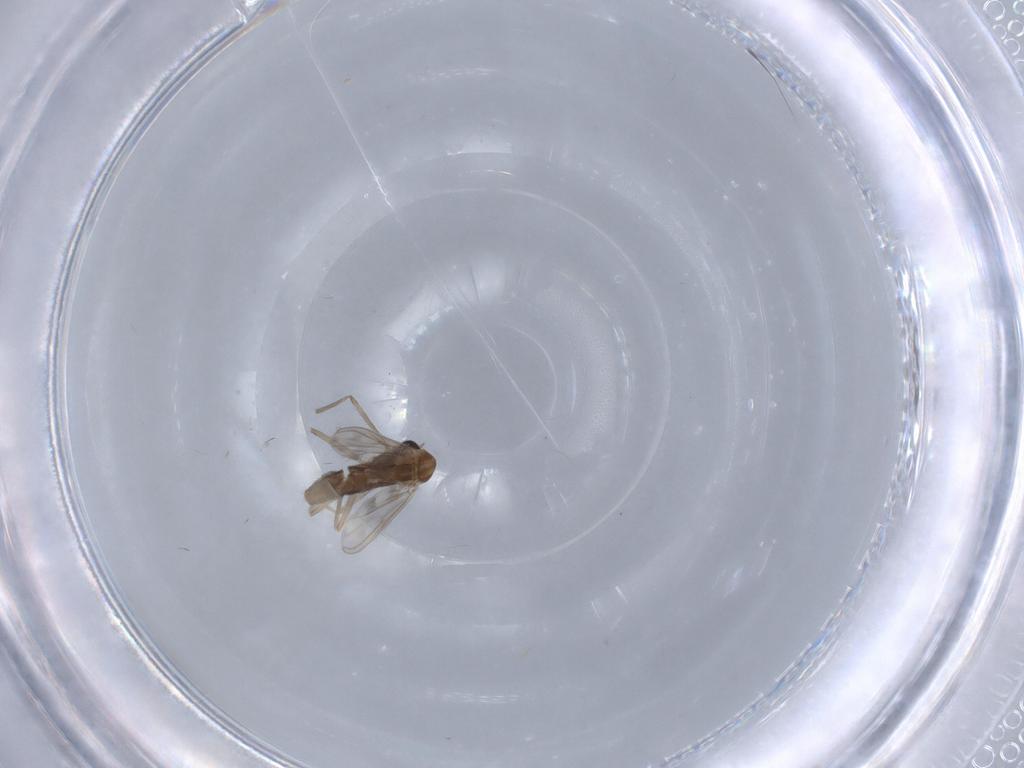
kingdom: Animalia
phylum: Arthropoda
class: Insecta
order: Diptera
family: Chironomidae
